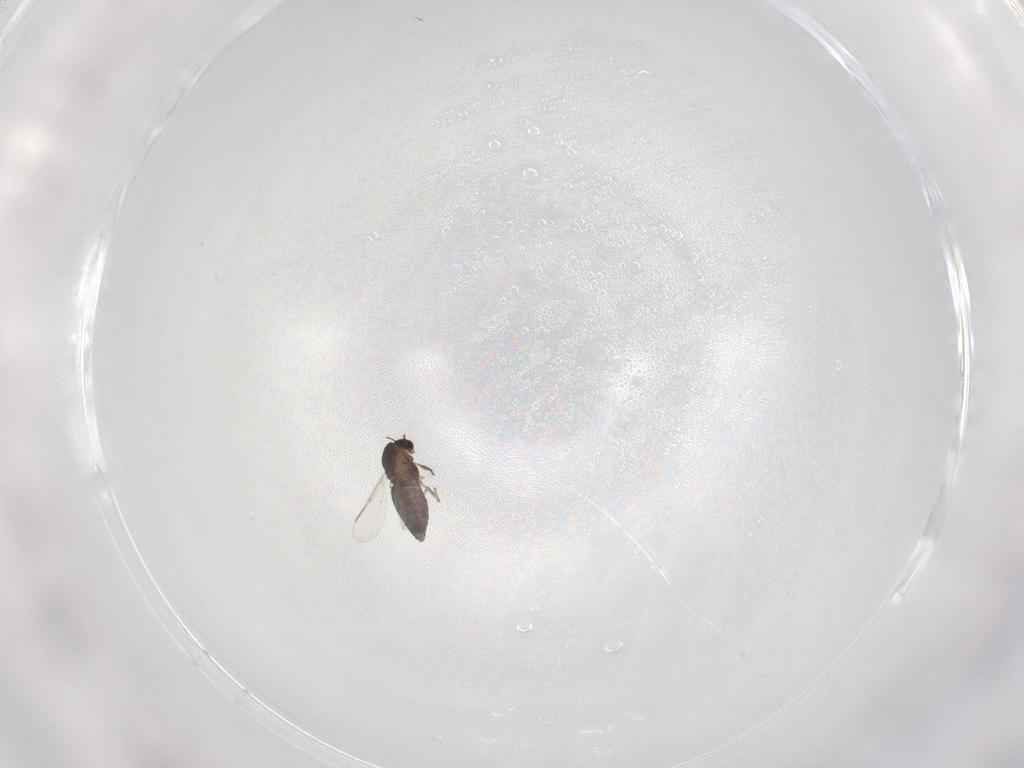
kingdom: Animalia
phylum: Arthropoda
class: Insecta
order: Diptera
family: Chironomidae
